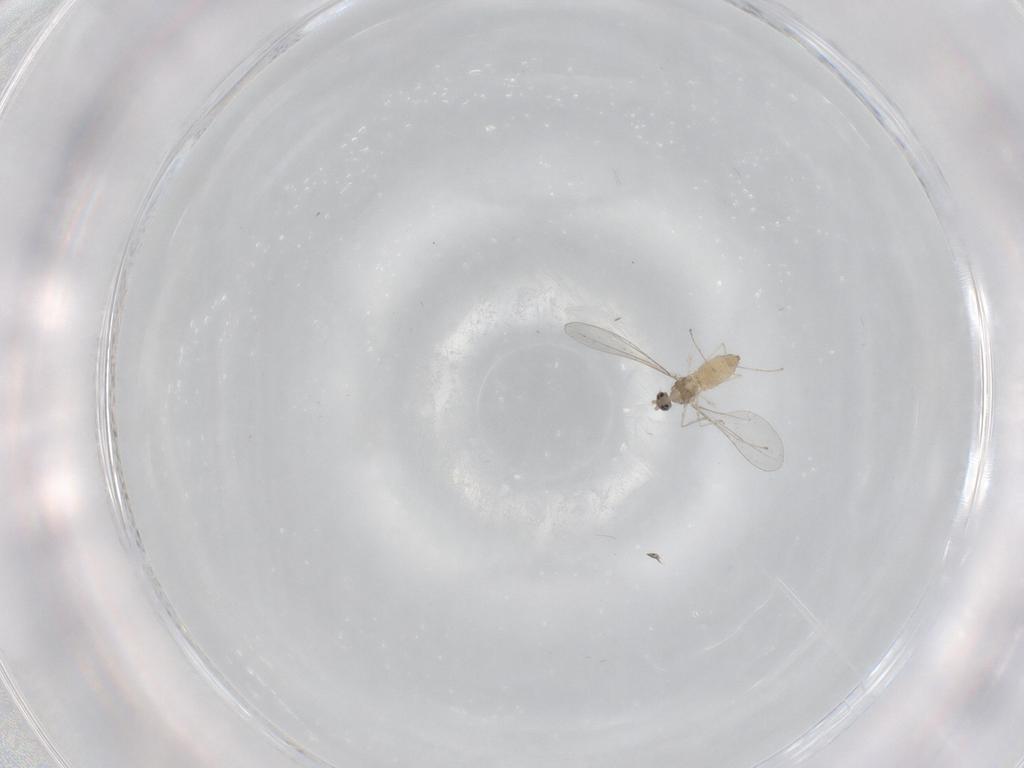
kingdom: Animalia
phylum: Arthropoda
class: Insecta
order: Diptera
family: Cecidomyiidae
